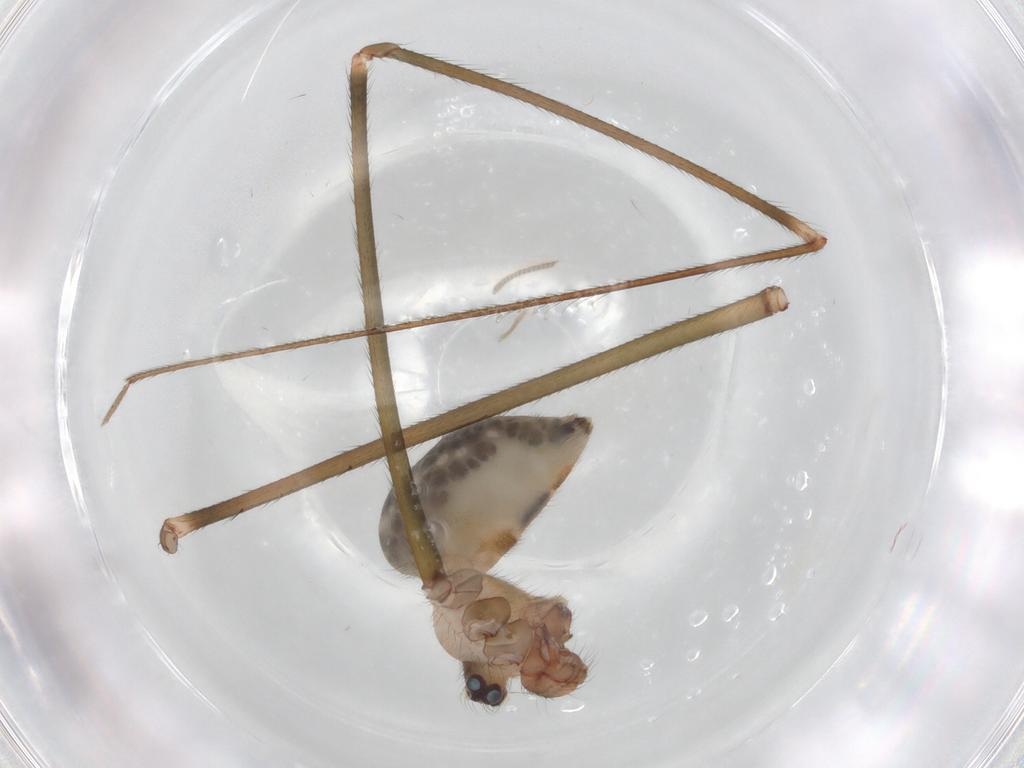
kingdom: Animalia
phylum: Arthropoda
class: Arachnida
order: Araneae
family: Pholcidae
